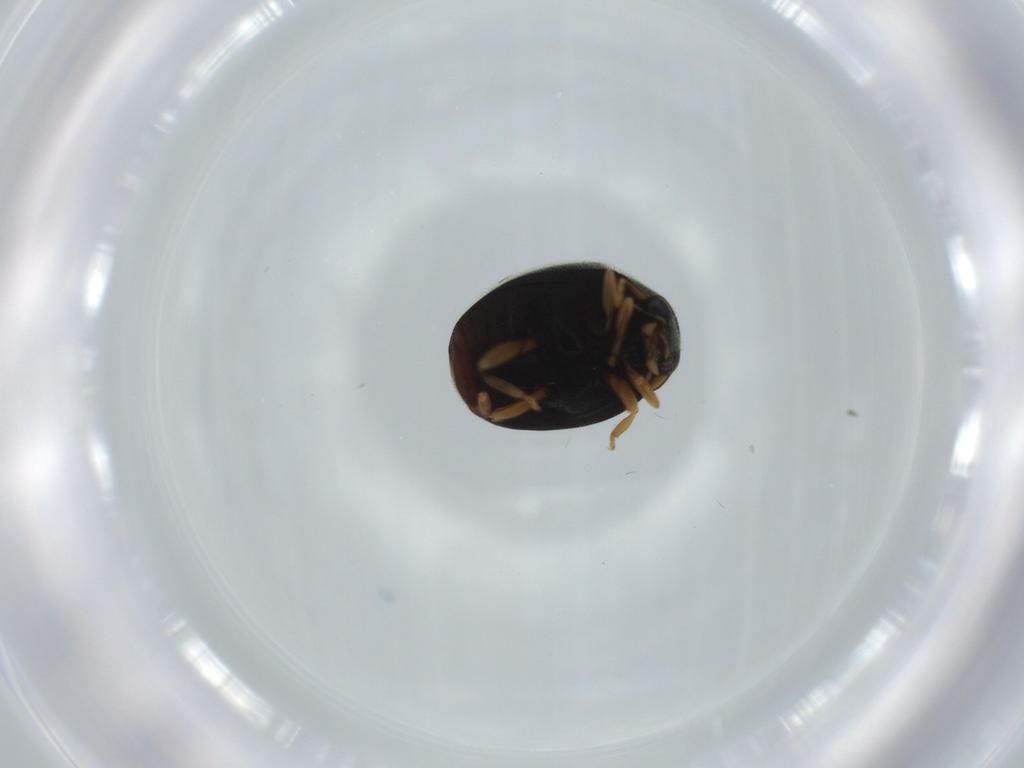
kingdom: Animalia
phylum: Arthropoda
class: Insecta
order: Coleoptera
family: Coccinellidae
